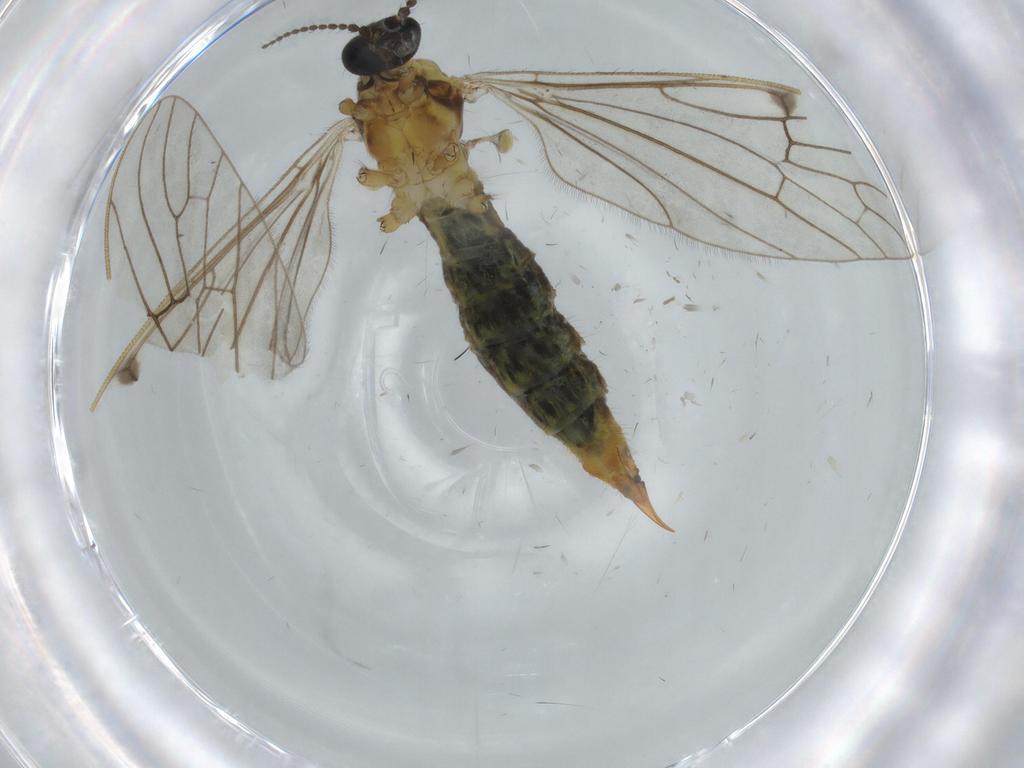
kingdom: Animalia
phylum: Arthropoda
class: Insecta
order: Diptera
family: Limoniidae
